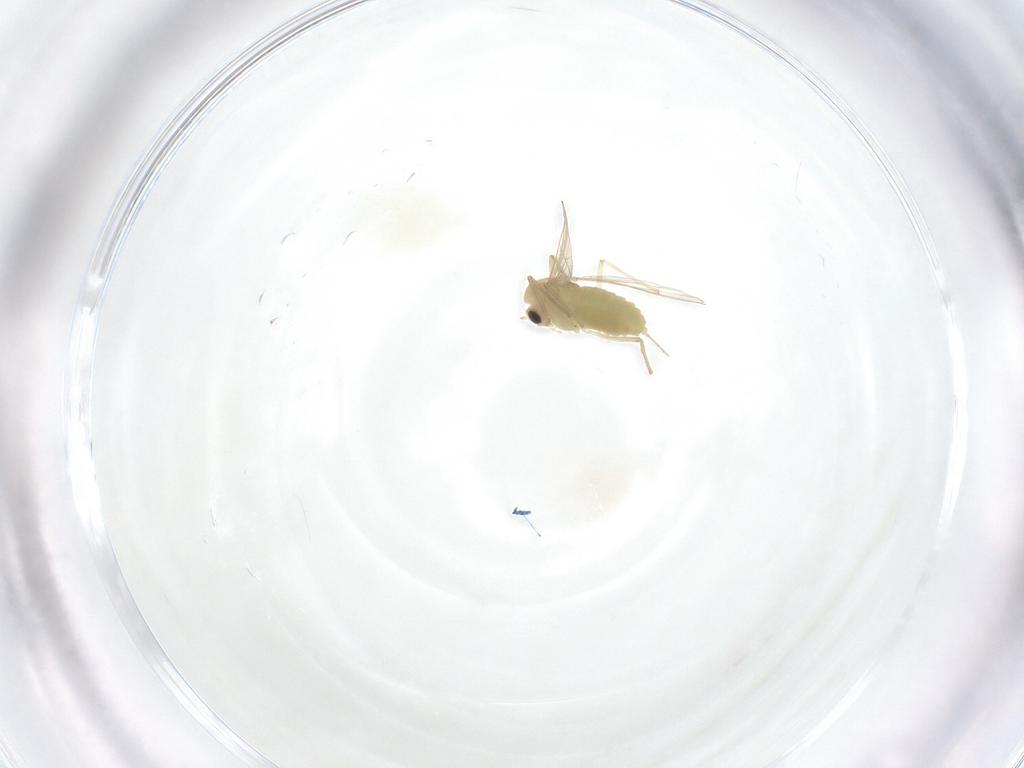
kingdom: Animalia
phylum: Arthropoda
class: Insecta
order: Diptera
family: Chironomidae
